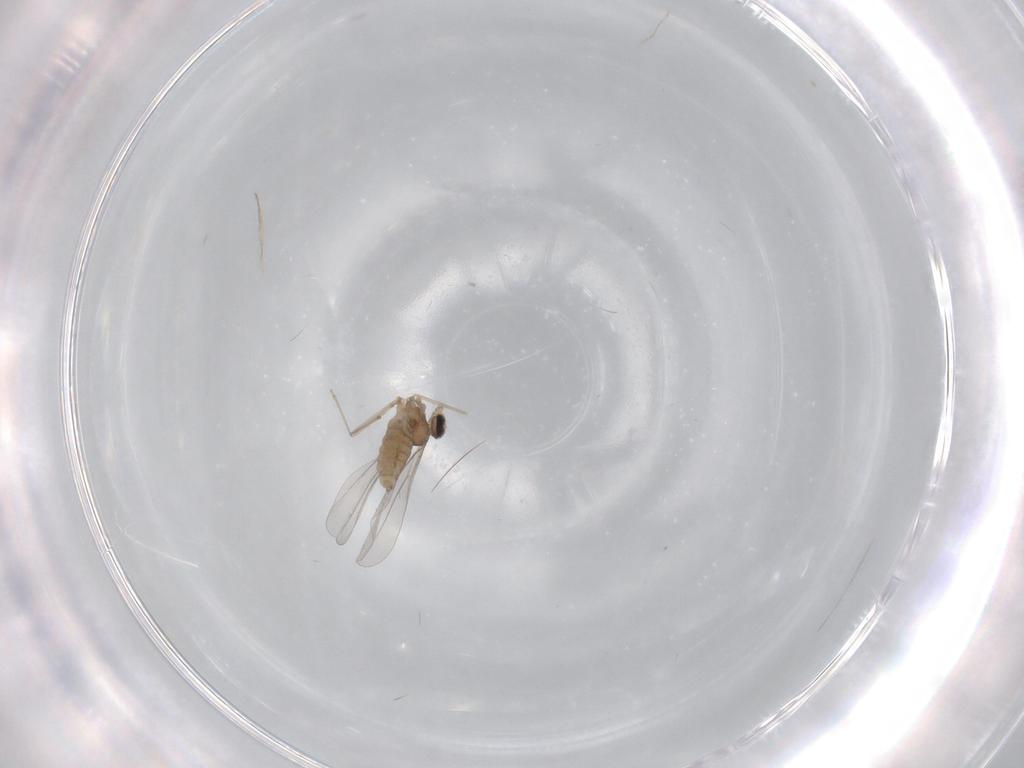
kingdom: Animalia
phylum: Arthropoda
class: Insecta
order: Diptera
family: Cecidomyiidae
